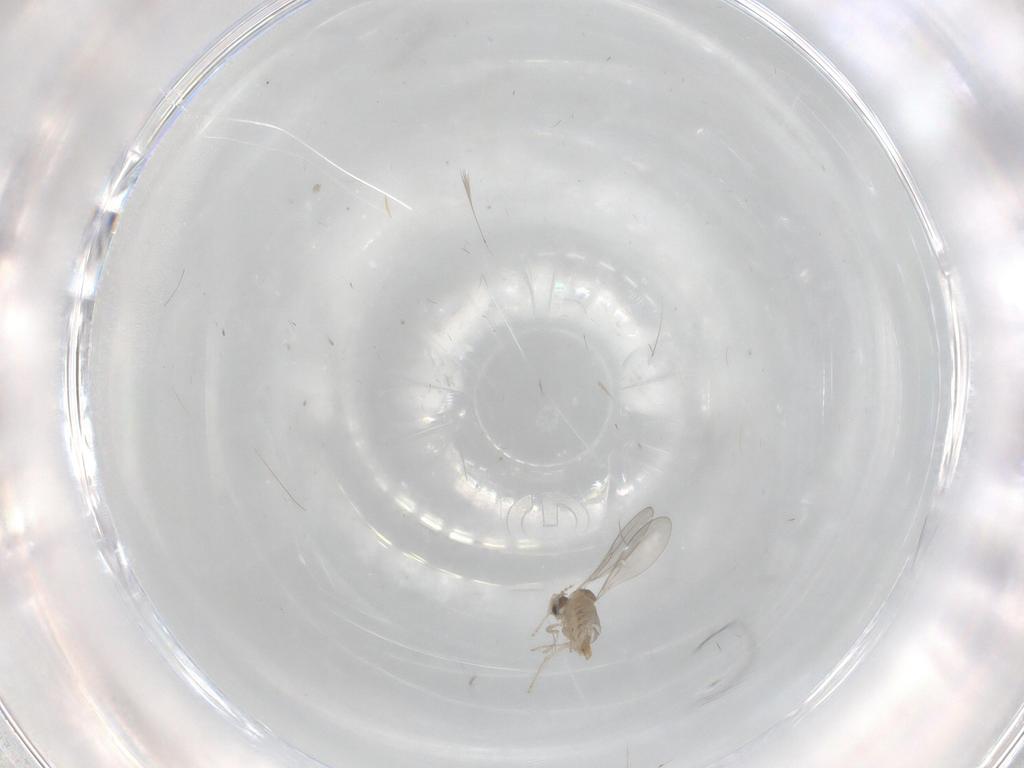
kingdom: Animalia
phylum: Arthropoda
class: Insecta
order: Diptera
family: Cecidomyiidae
